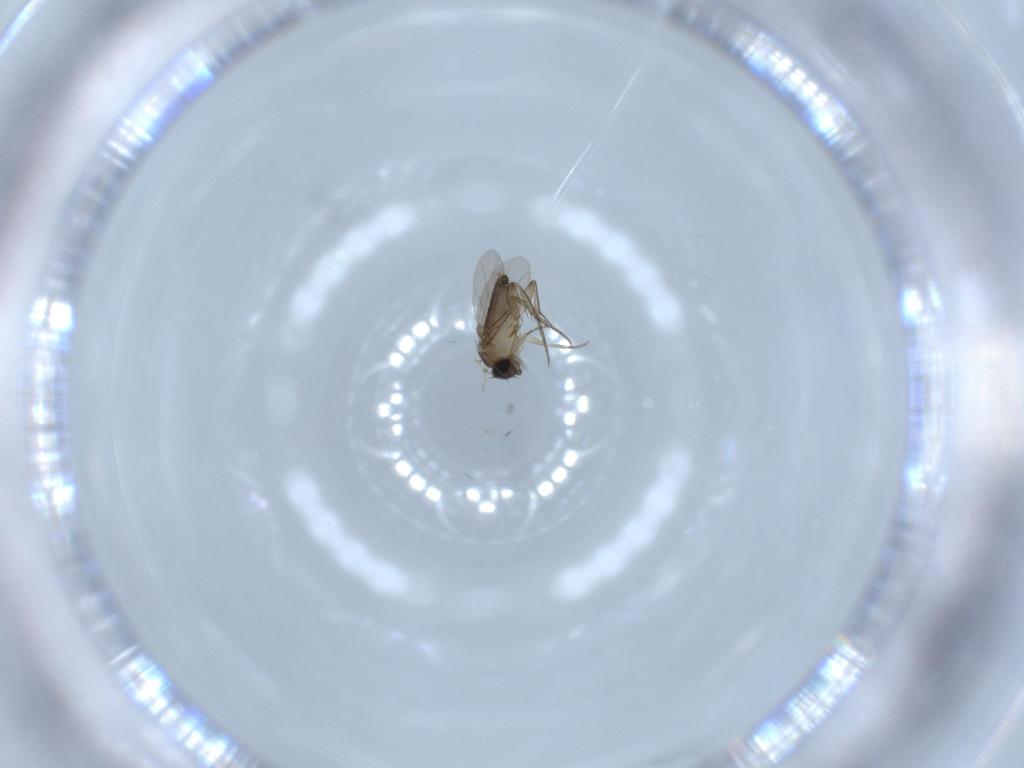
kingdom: Animalia
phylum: Arthropoda
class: Insecta
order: Diptera
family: Phoridae
